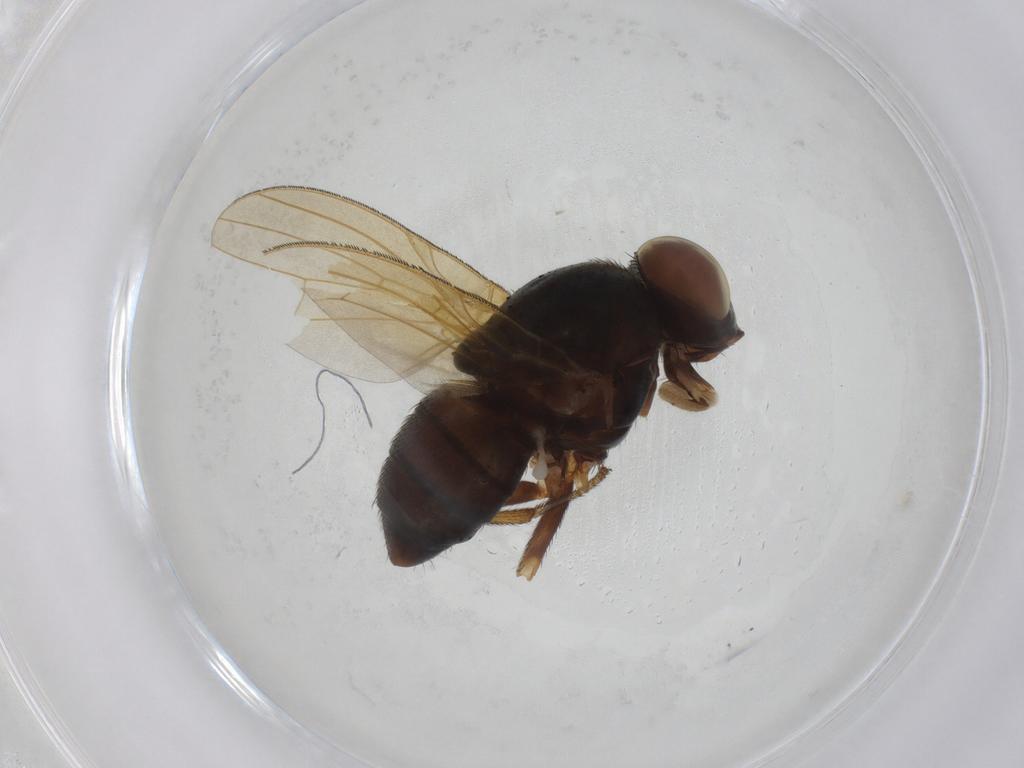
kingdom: Animalia
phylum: Arthropoda
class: Insecta
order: Diptera
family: Lauxaniidae
